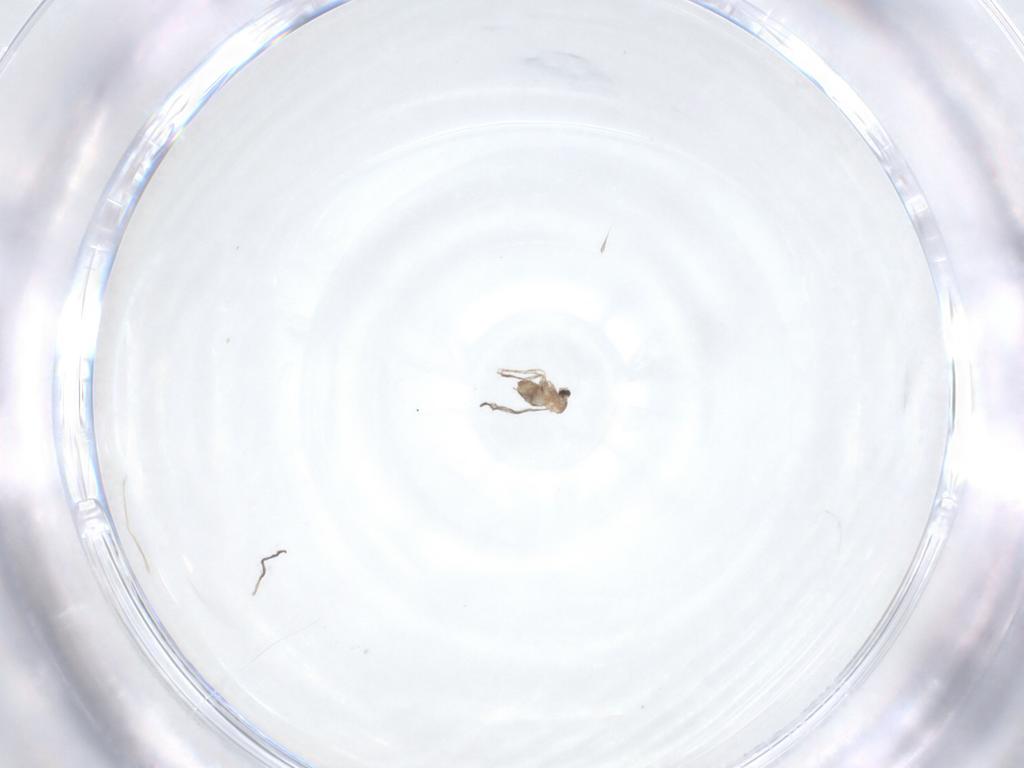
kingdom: Animalia
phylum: Arthropoda
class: Insecta
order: Diptera
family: Cecidomyiidae
